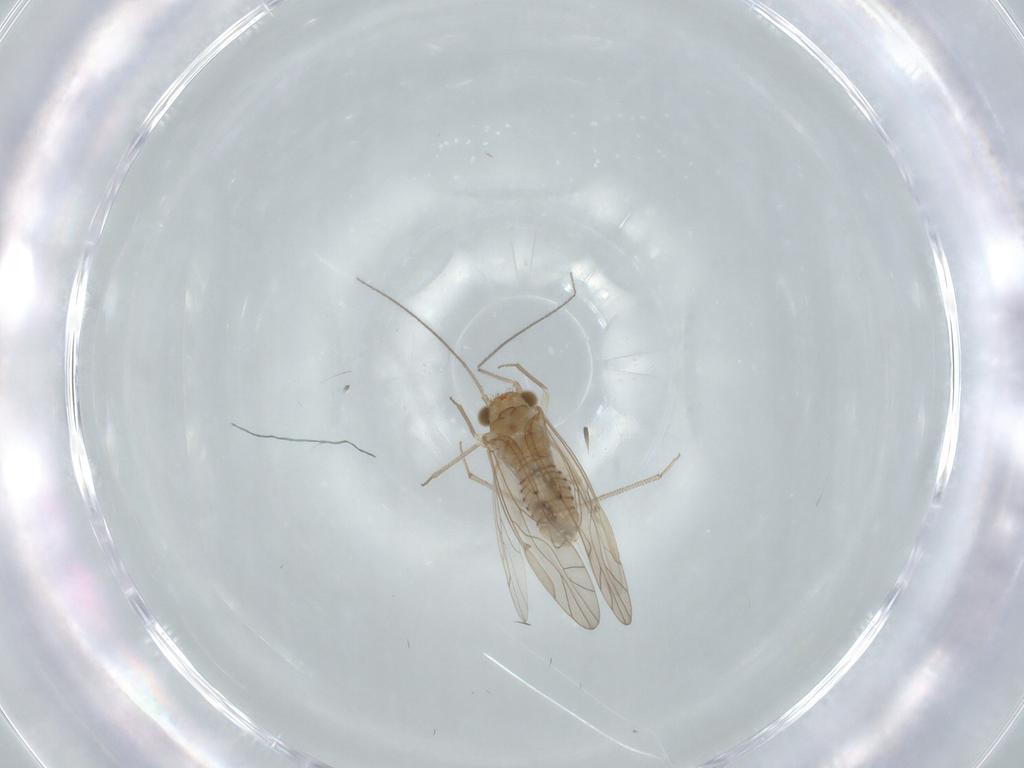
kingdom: Animalia
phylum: Arthropoda
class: Insecta
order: Psocodea
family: Lachesillidae
